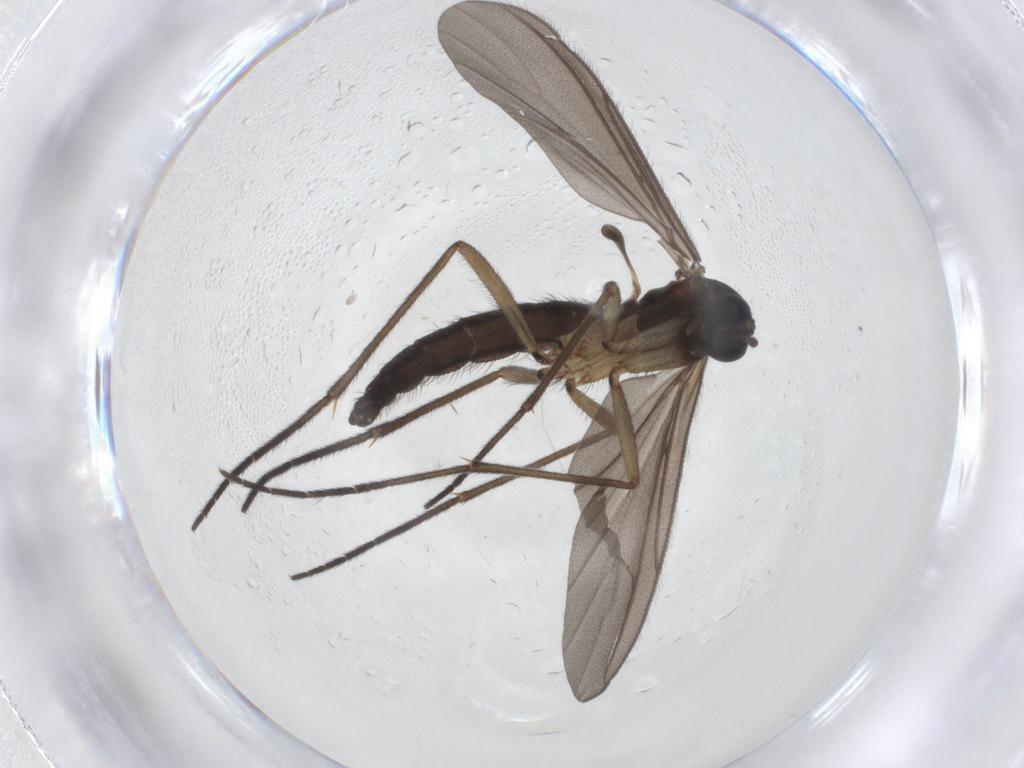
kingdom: Animalia
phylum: Arthropoda
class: Insecta
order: Diptera
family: Sciaridae
